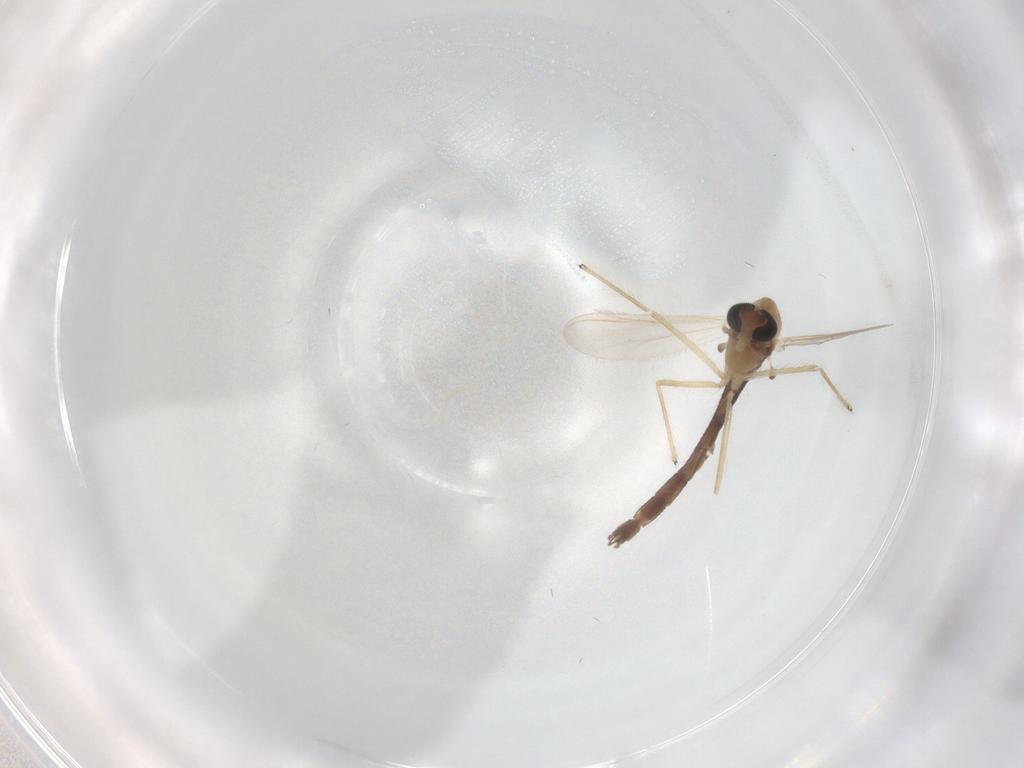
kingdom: Animalia
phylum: Arthropoda
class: Insecta
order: Diptera
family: Chironomidae
